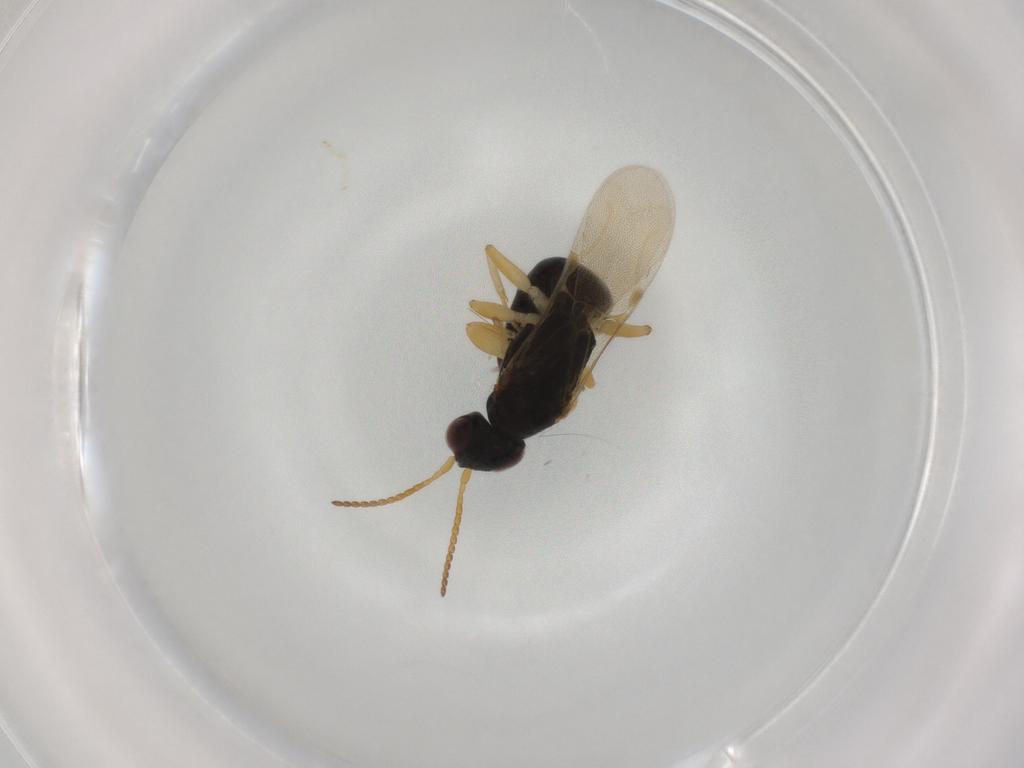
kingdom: Animalia
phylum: Arthropoda
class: Insecta
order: Hymenoptera
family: Bethylidae
